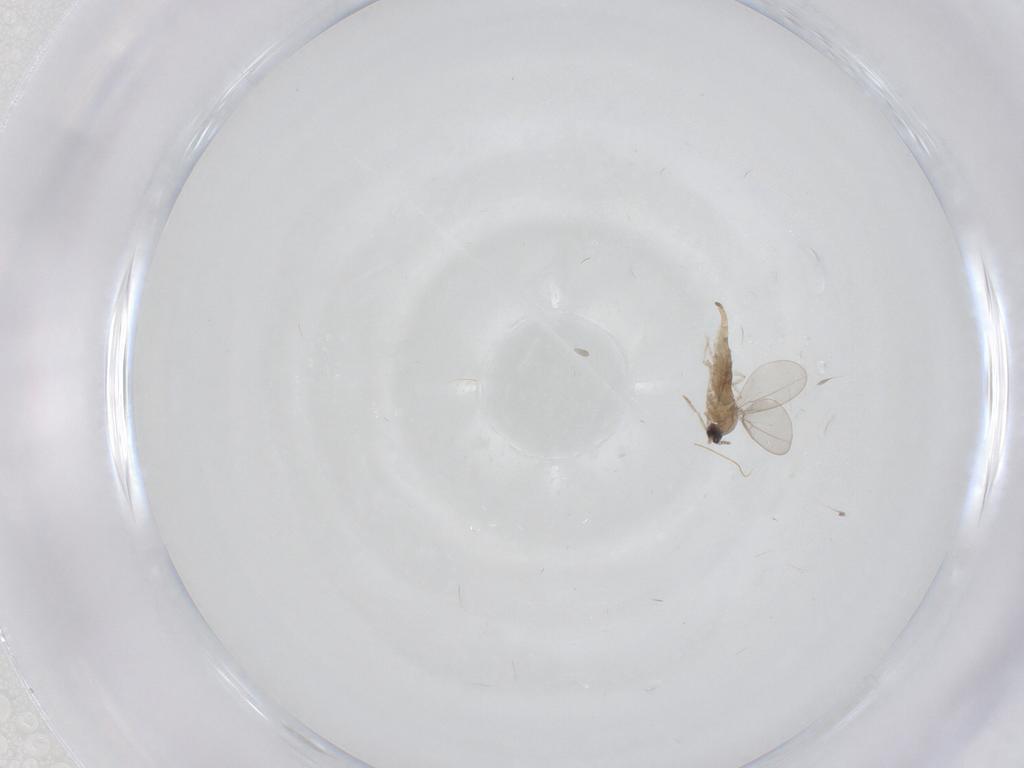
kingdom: Animalia
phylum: Arthropoda
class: Insecta
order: Diptera
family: Cecidomyiidae
